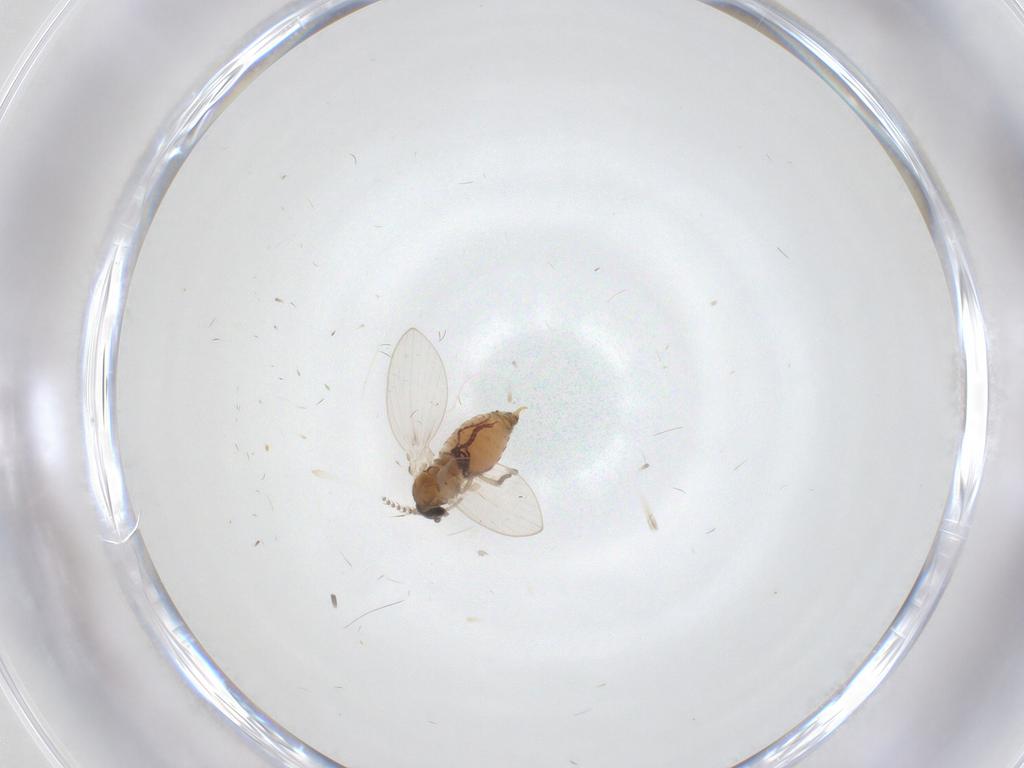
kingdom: Animalia
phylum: Arthropoda
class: Insecta
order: Diptera
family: Psychodidae
